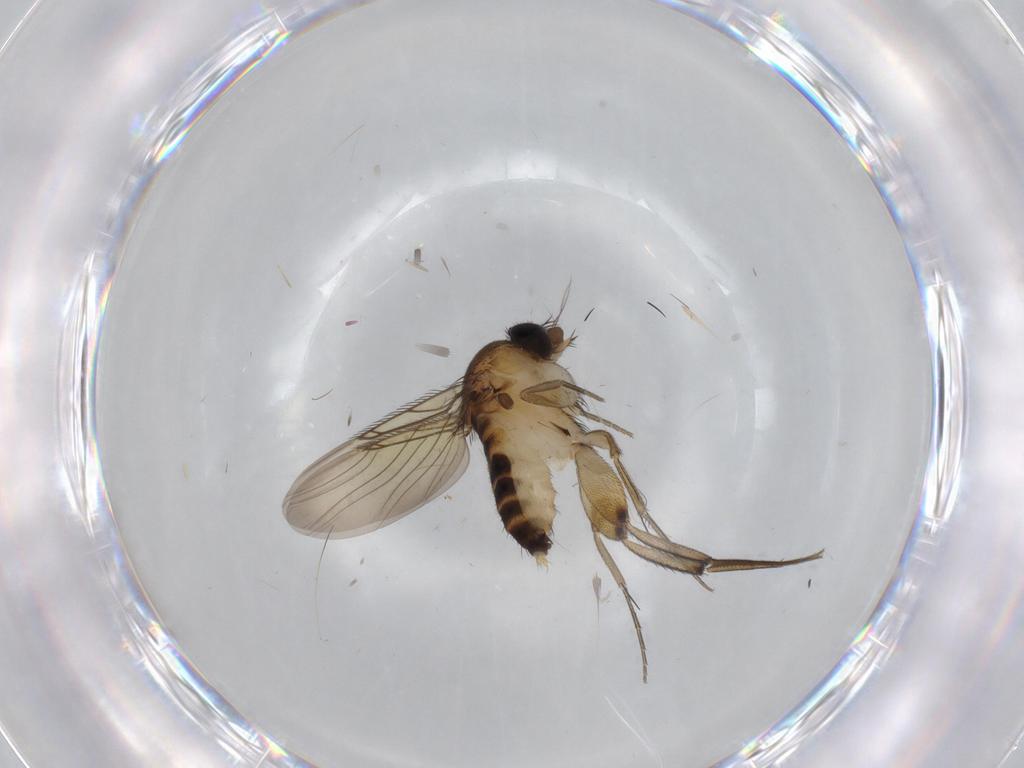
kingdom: Animalia
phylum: Arthropoda
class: Insecta
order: Diptera
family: Phoridae
